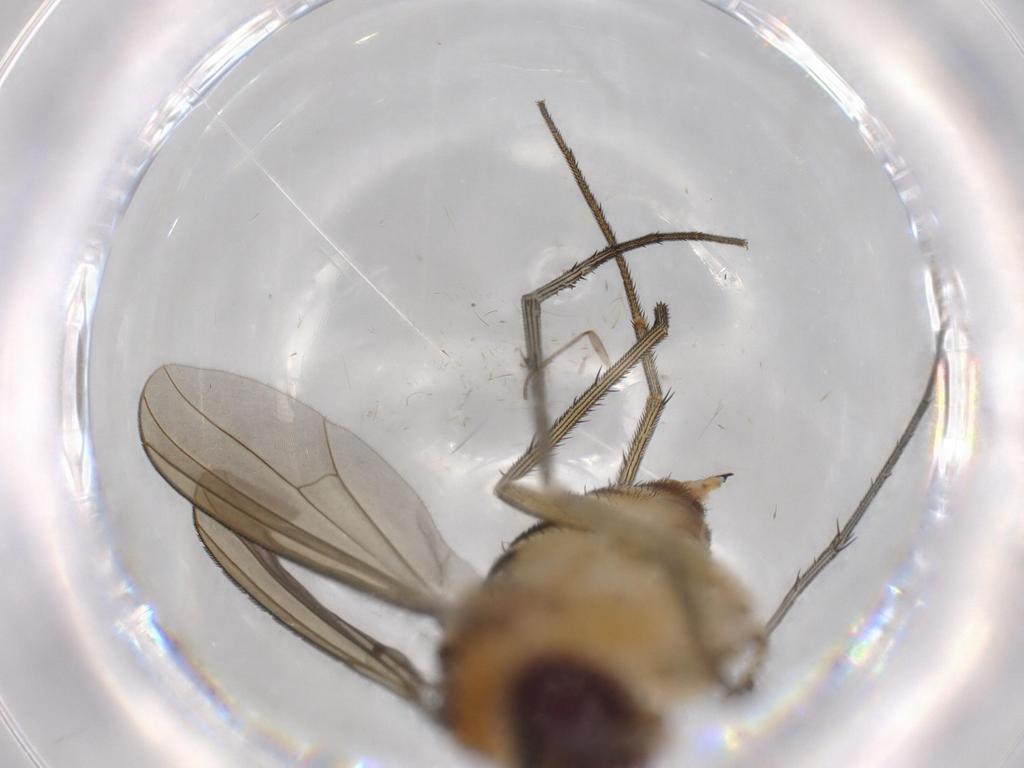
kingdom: Animalia
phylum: Arthropoda
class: Insecta
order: Diptera
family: Dolichopodidae
